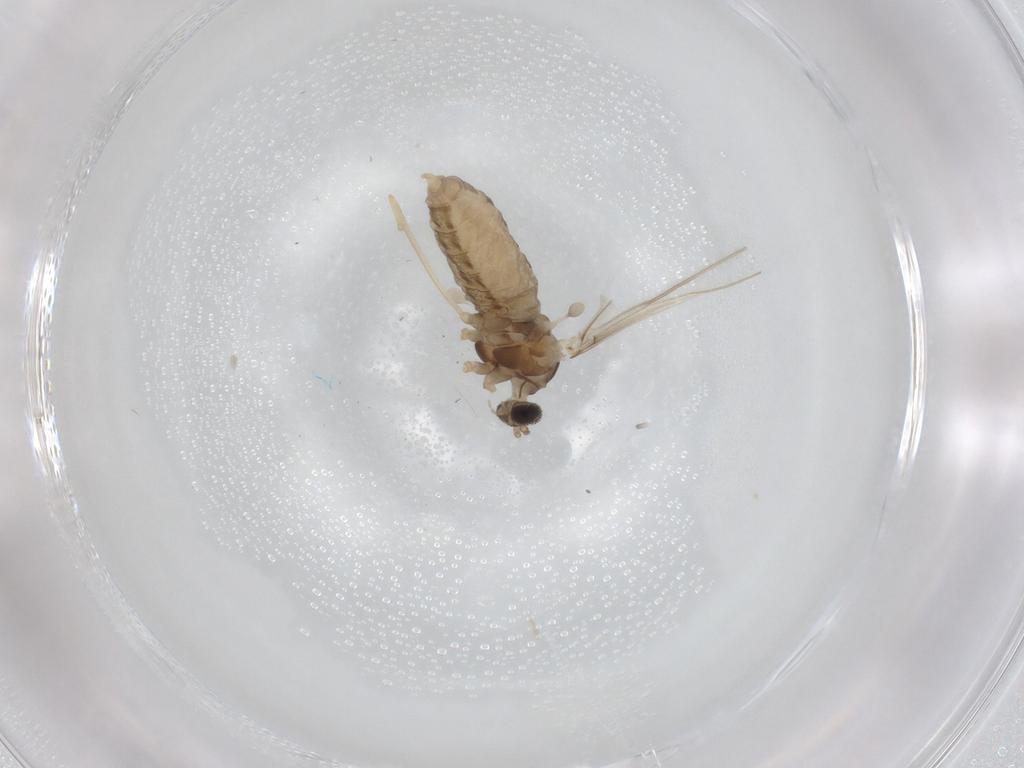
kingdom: Animalia
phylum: Arthropoda
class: Insecta
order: Diptera
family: Cecidomyiidae
